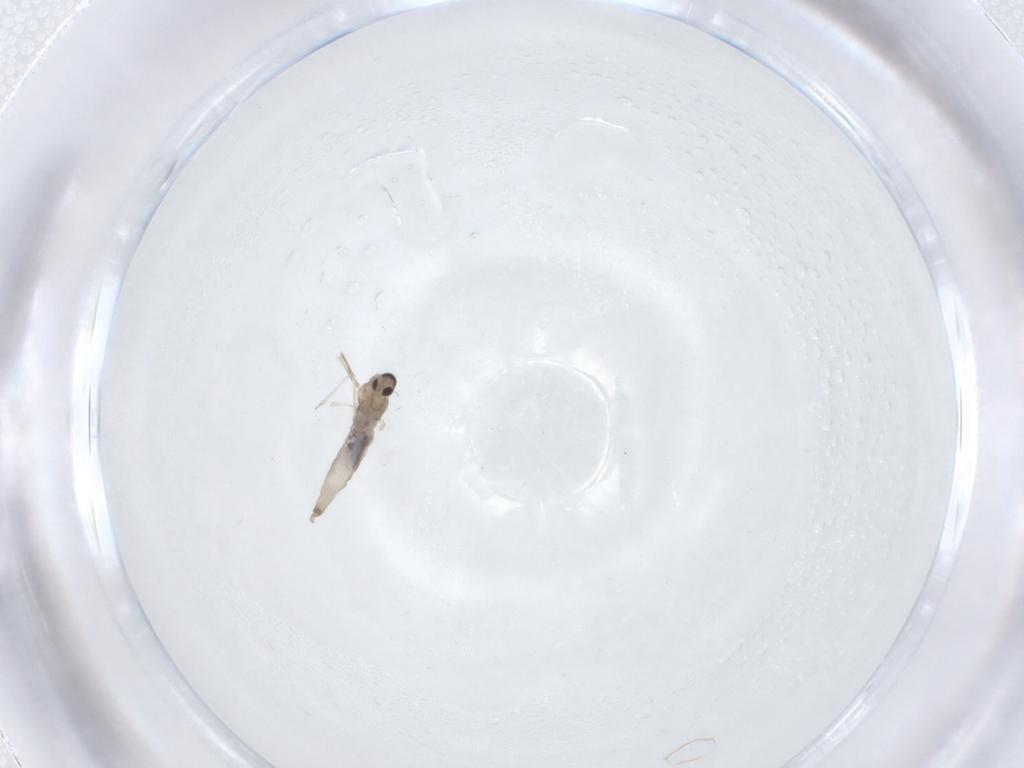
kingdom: Animalia
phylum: Arthropoda
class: Insecta
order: Diptera
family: Cecidomyiidae
